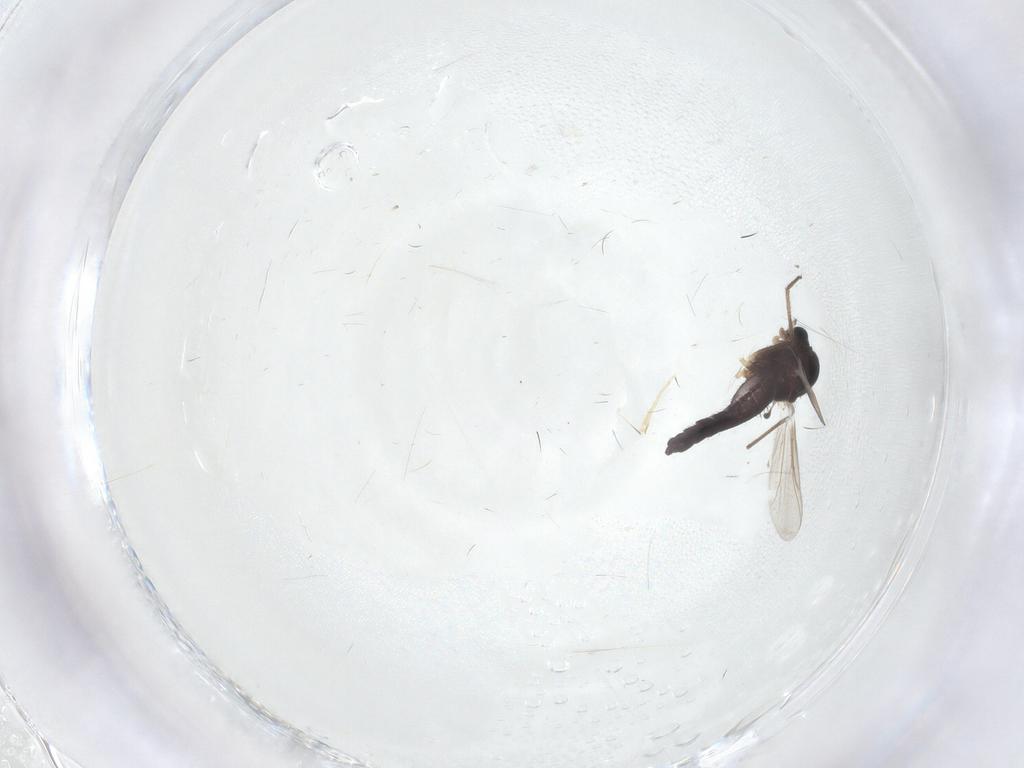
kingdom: Animalia
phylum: Arthropoda
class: Insecta
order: Diptera
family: Chironomidae
